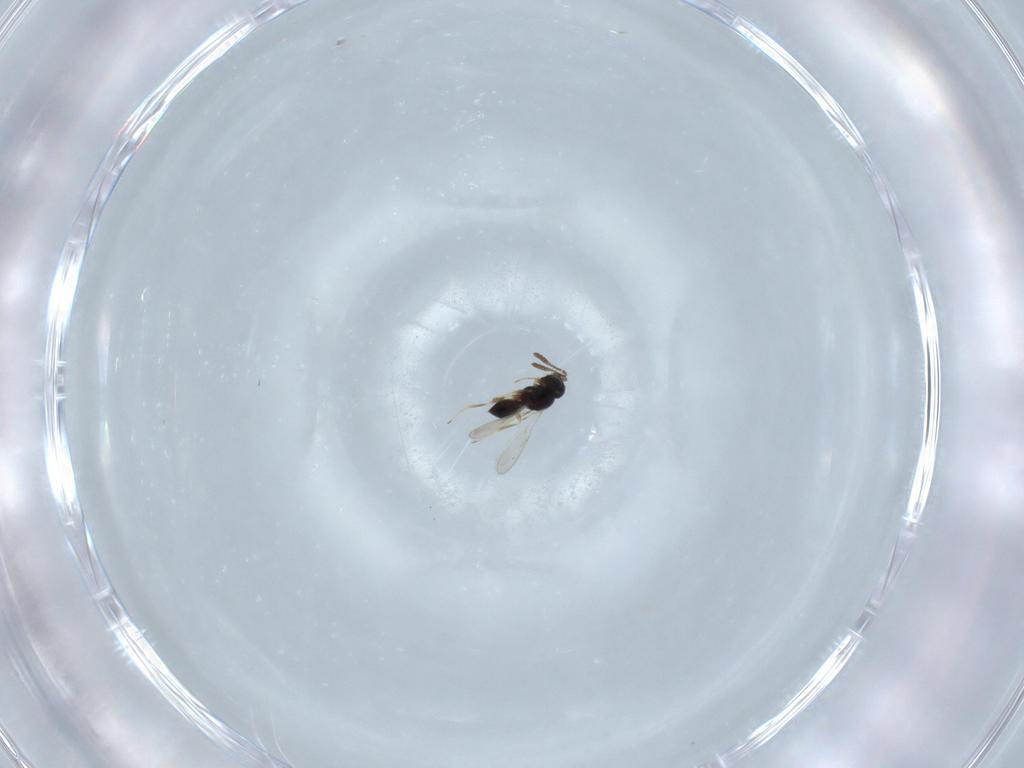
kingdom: Animalia
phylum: Arthropoda
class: Insecta
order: Hymenoptera
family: Scelionidae
